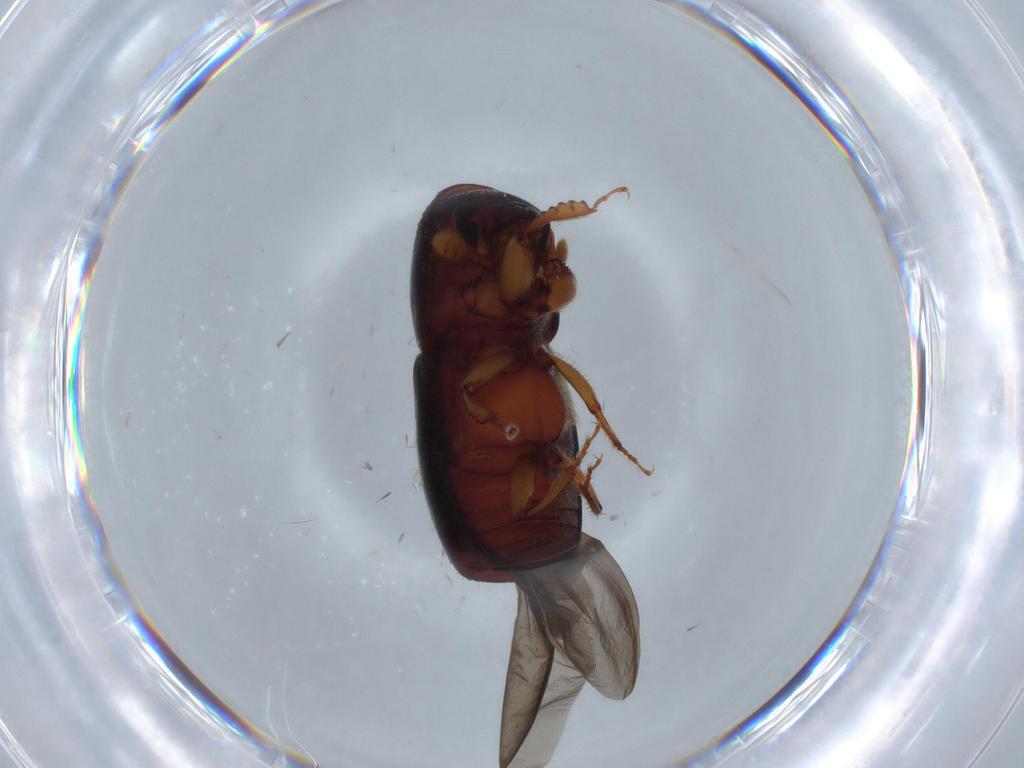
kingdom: Animalia
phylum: Arthropoda
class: Insecta
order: Coleoptera
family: Curculionidae
